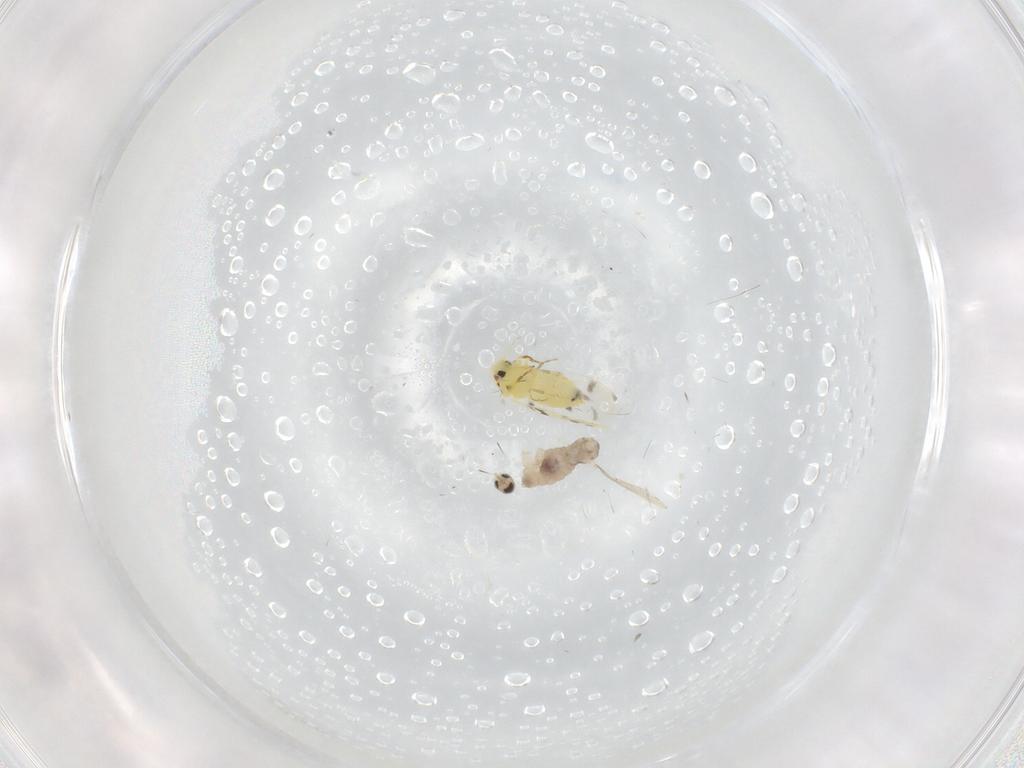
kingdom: Animalia
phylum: Arthropoda
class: Insecta
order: Diptera
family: Cecidomyiidae
